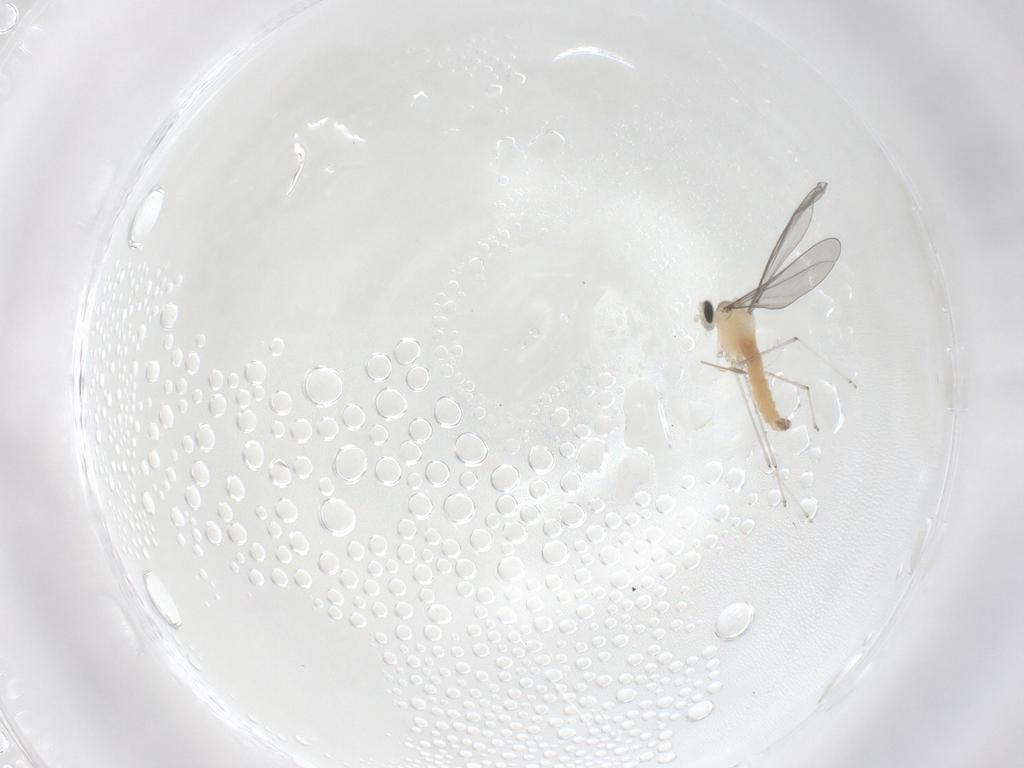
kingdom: Animalia
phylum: Arthropoda
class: Insecta
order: Diptera
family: Cecidomyiidae
